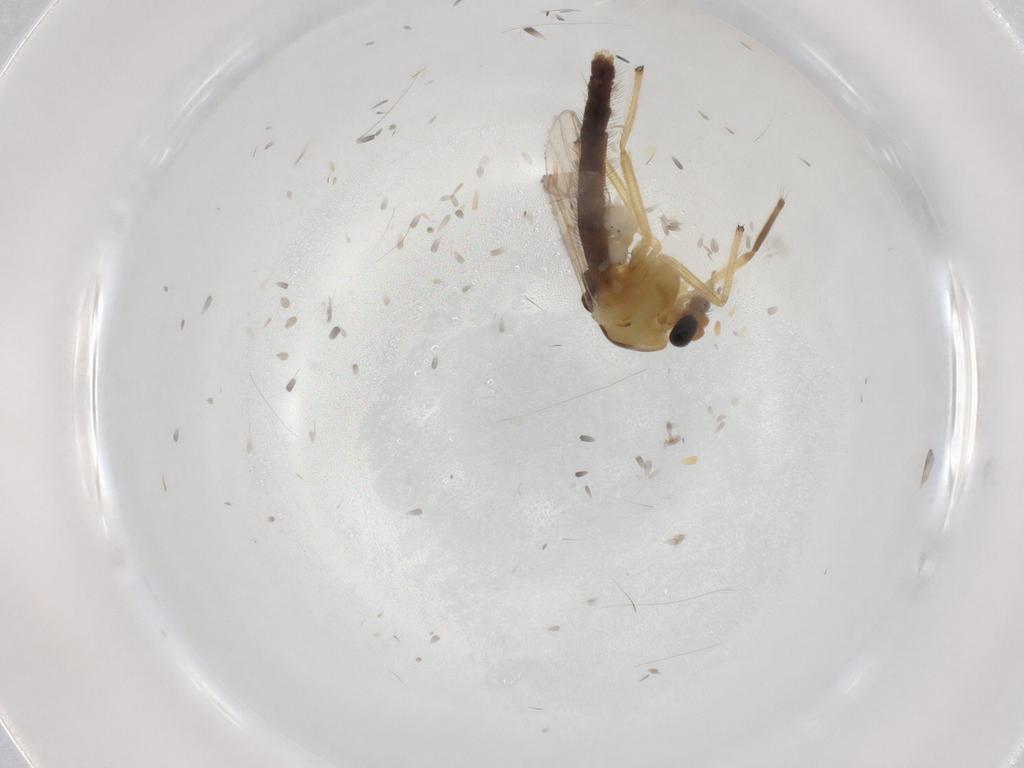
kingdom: Animalia
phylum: Arthropoda
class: Insecta
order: Diptera
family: Chironomidae
